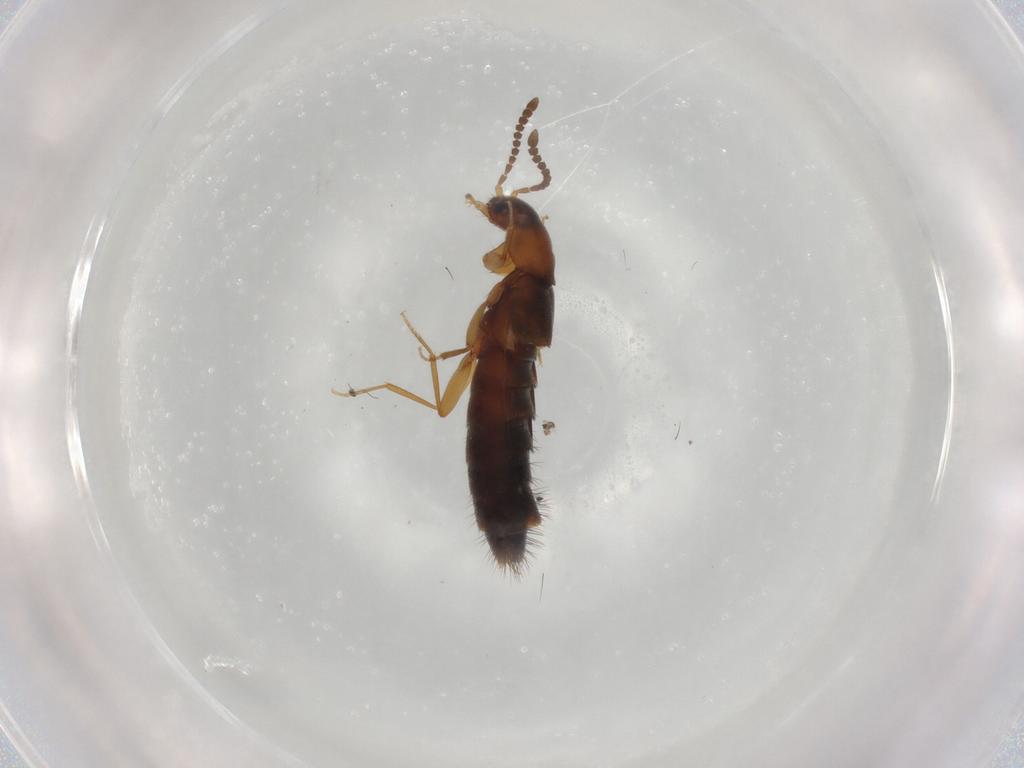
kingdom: Animalia
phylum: Arthropoda
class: Insecta
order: Coleoptera
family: Staphylinidae
